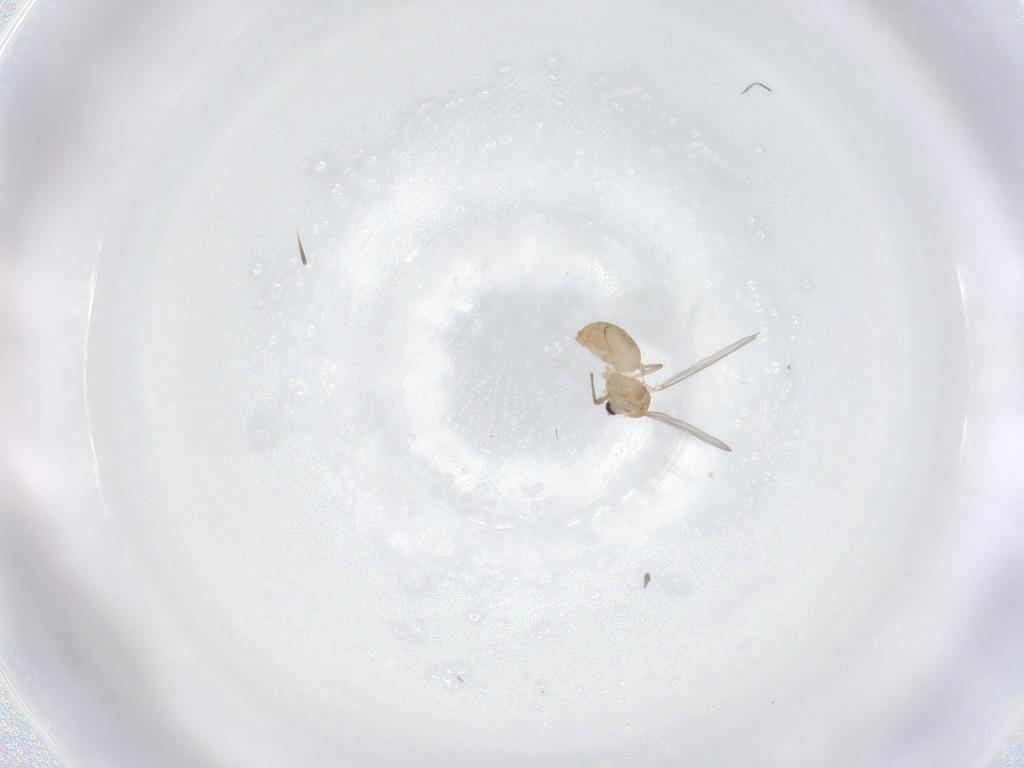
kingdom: Animalia
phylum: Arthropoda
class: Insecta
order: Diptera
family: Chironomidae
